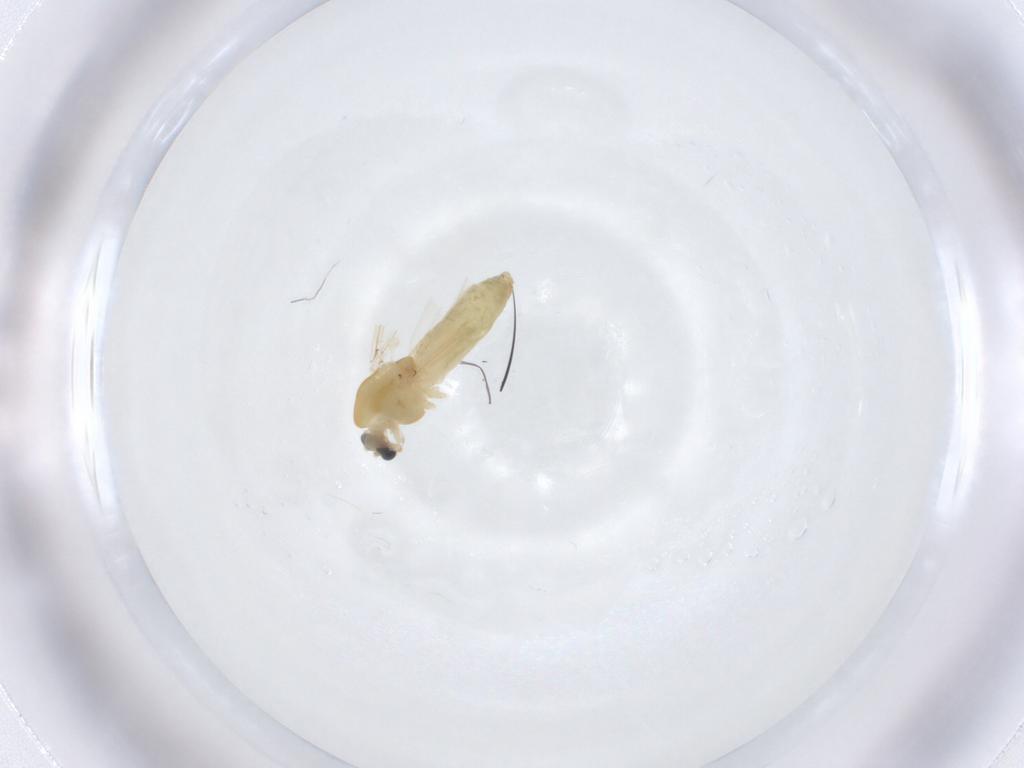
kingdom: Animalia
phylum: Arthropoda
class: Insecta
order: Diptera
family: Chironomidae
